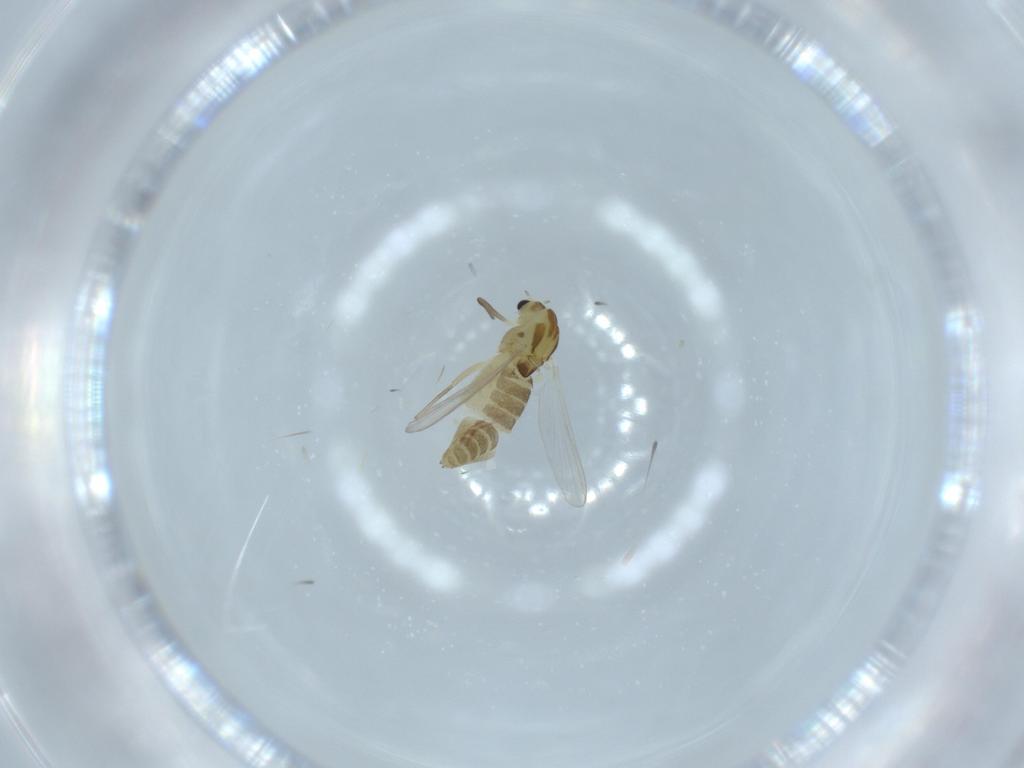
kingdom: Animalia
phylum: Arthropoda
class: Insecta
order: Diptera
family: Chironomidae
